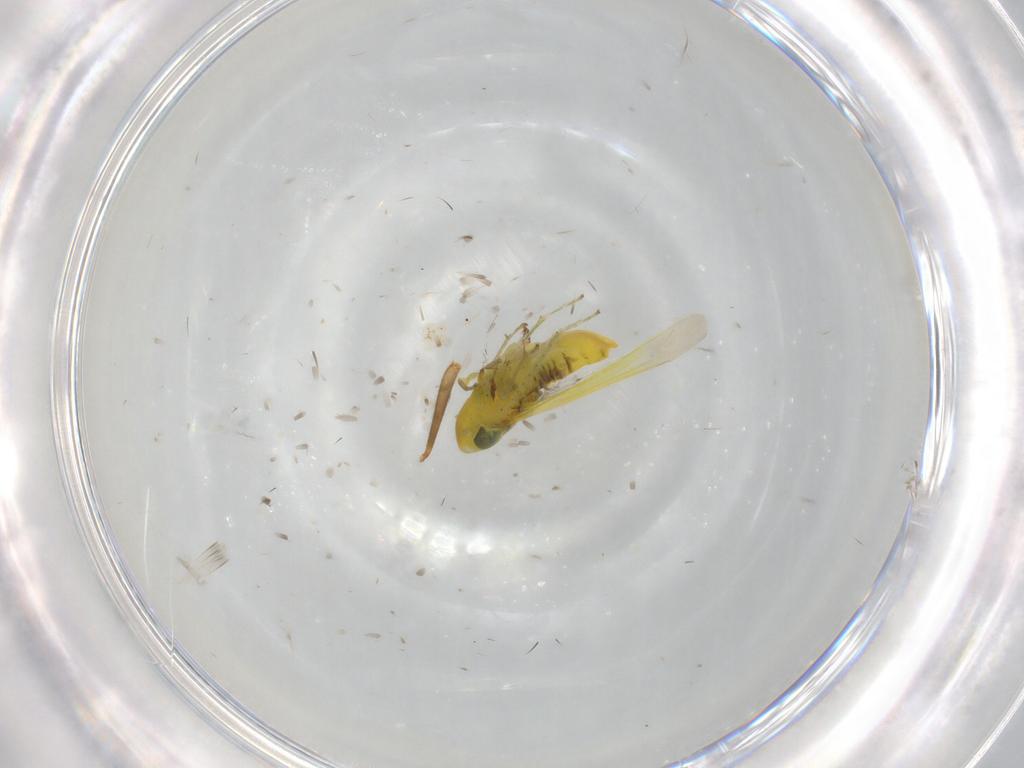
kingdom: Animalia
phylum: Arthropoda
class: Insecta
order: Hemiptera
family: Cicadellidae
